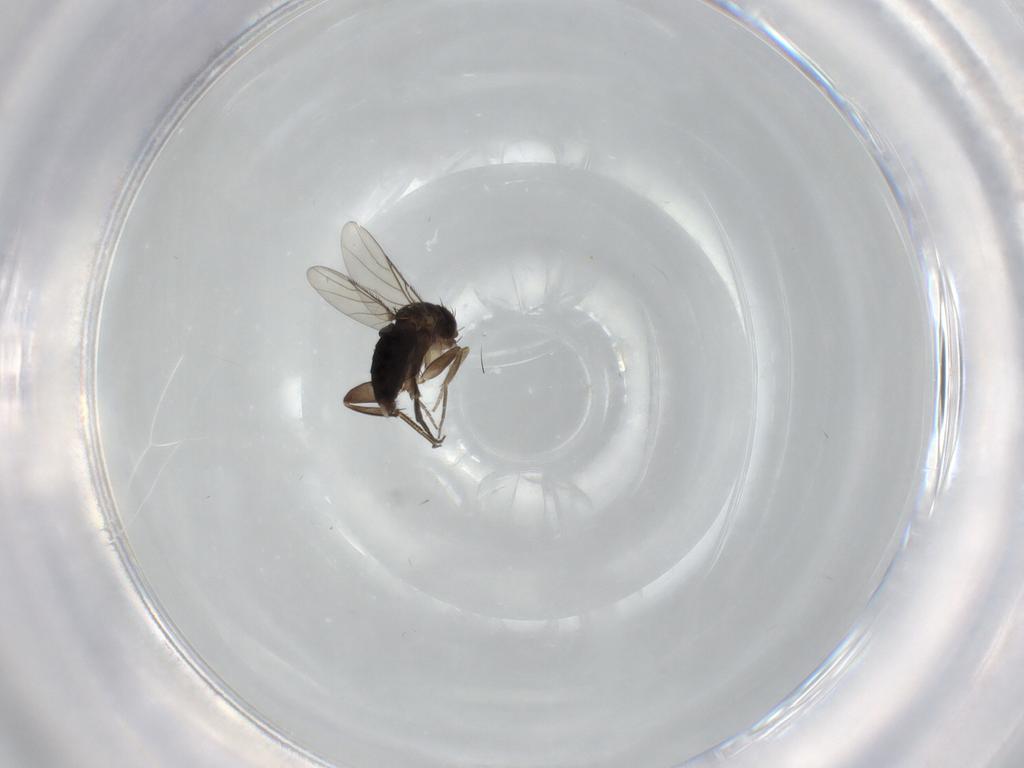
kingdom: Animalia
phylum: Arthropoda
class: Insecta
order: Diptera
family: Phoridae
